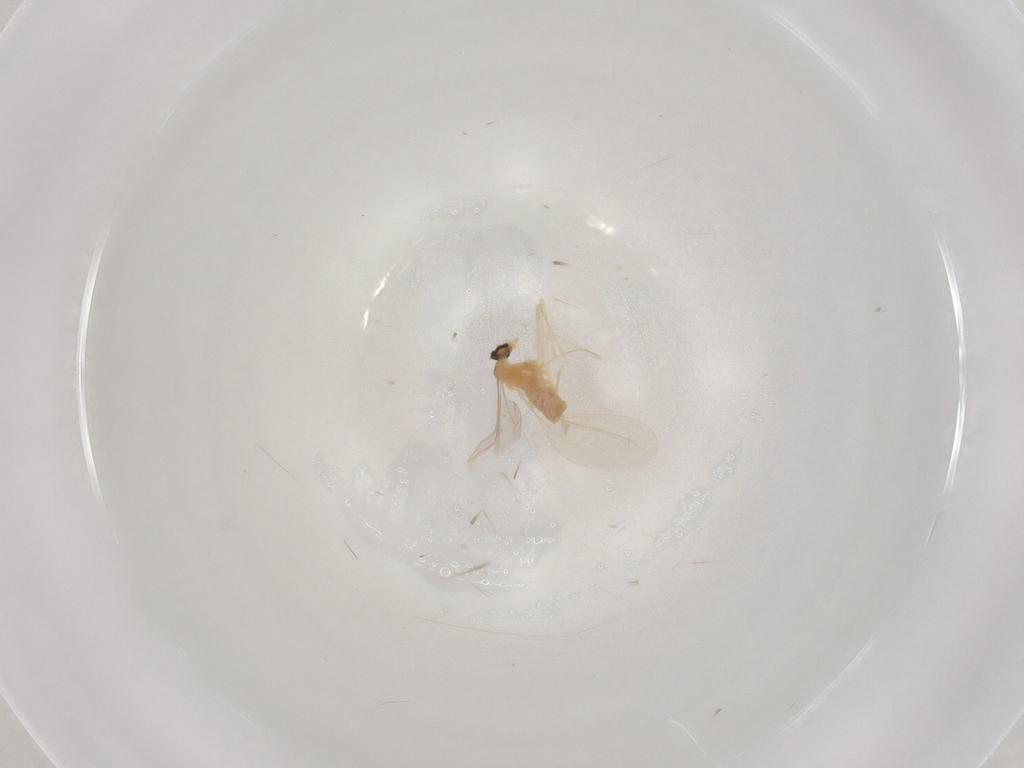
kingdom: Animalia
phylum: Arthropoda
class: Insecta
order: Diptera
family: Cecidomyiidae
